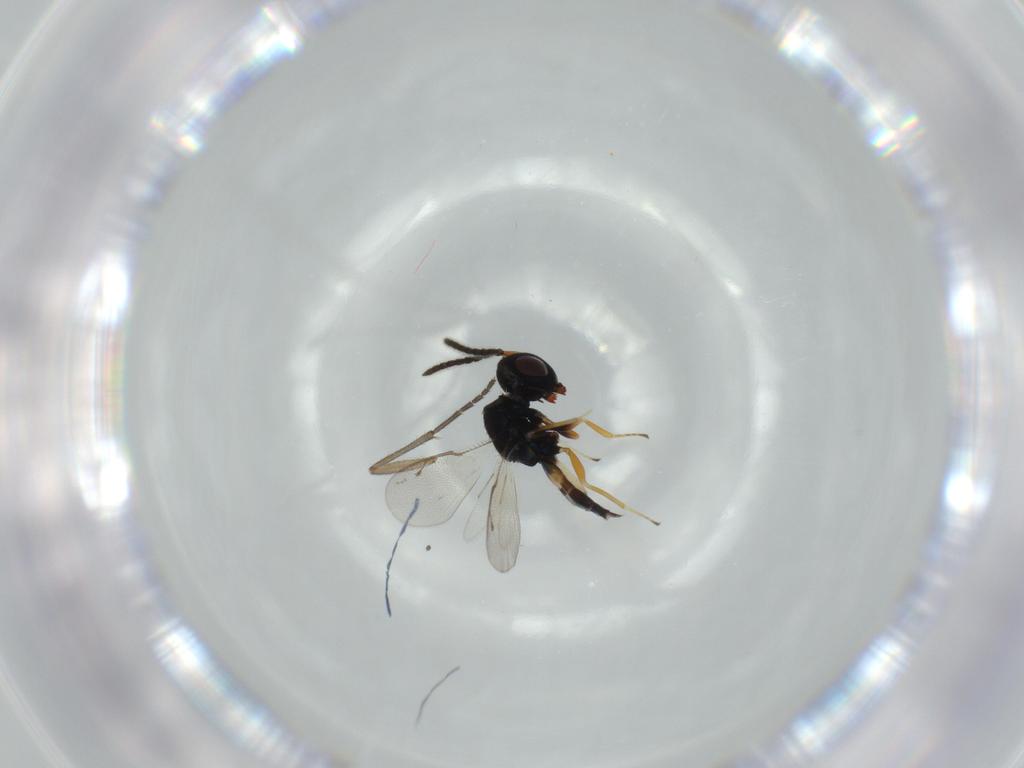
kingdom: Animalia
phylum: Arthropoda
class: Insecta
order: Hymenoptera
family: Pteromalidae
